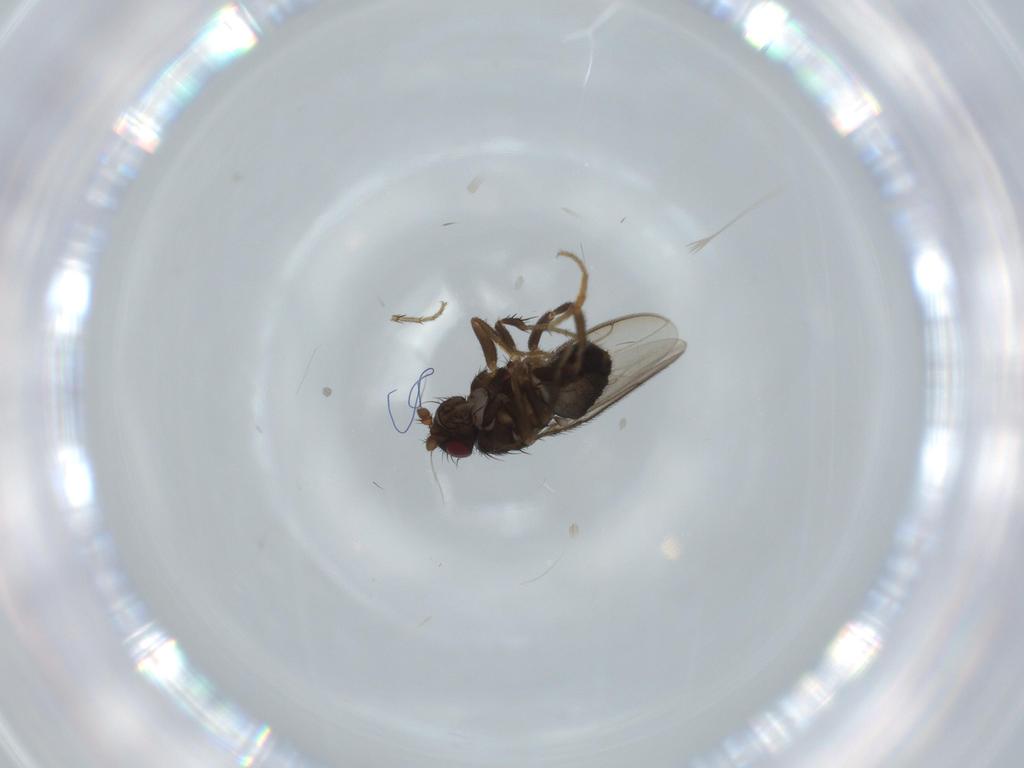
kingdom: Animalia
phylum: Arthropoda
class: Insecta
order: Diptera
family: Sphaeroceridae
